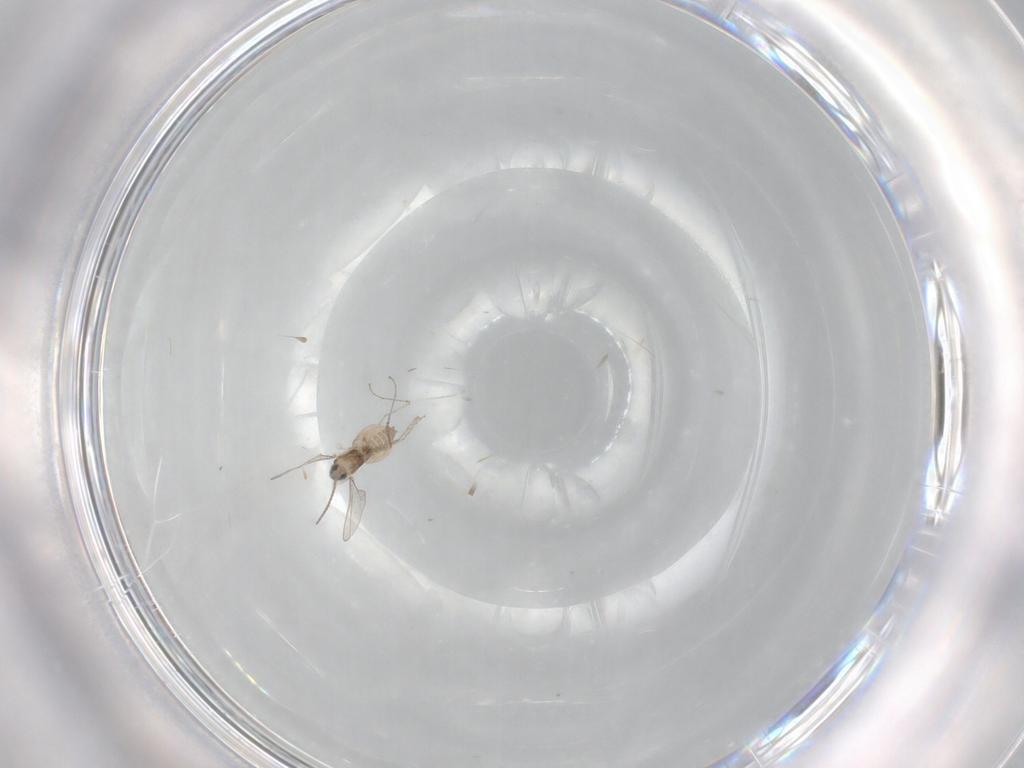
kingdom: Animalia
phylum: Arthropoda
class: Insecta
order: Diptera
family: Cecidomyiidae
